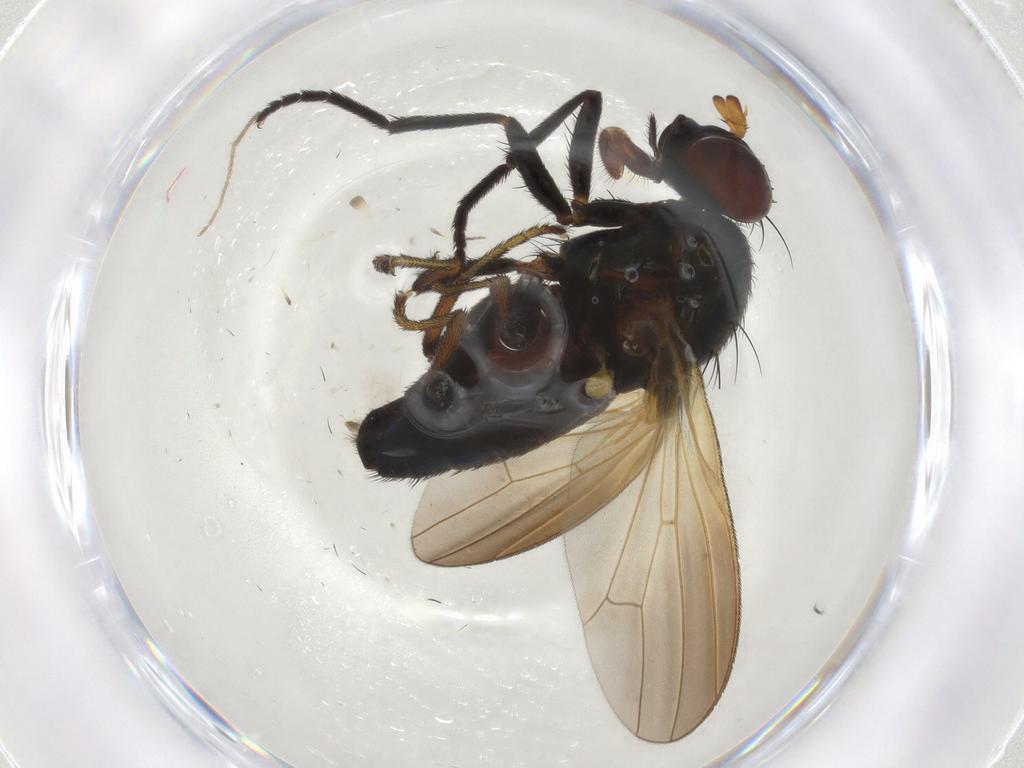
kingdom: Animalia
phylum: Arthropoda
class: Insecta
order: Diptera
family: Lauxaniidae
